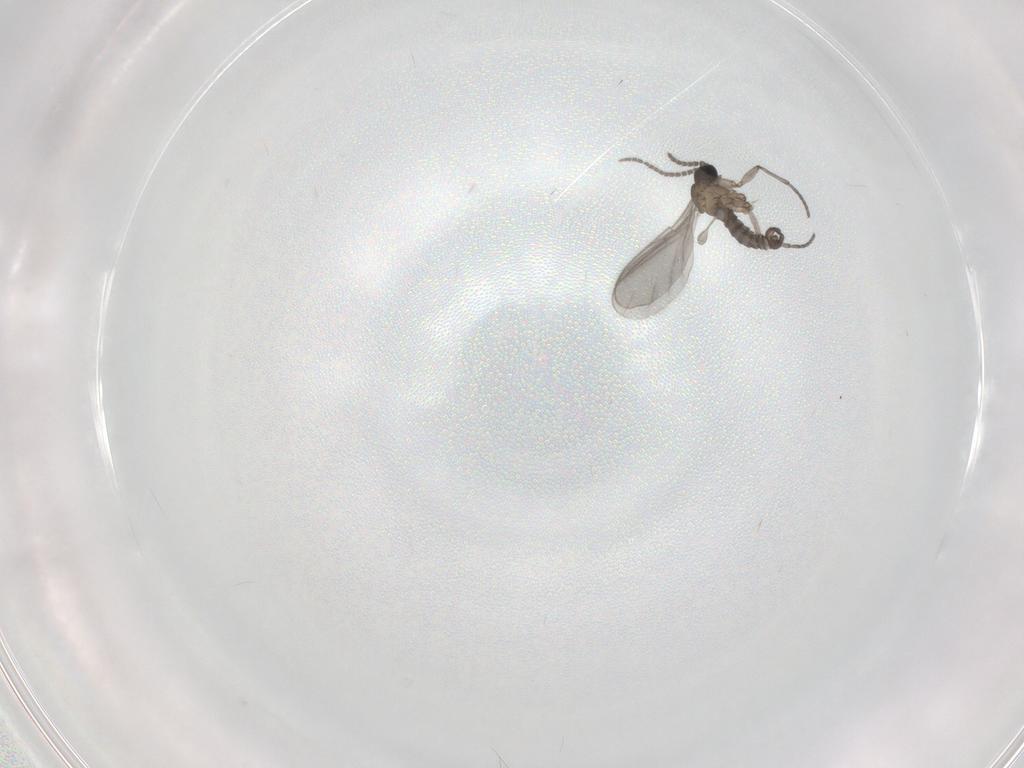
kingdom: Animalia
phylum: Arthropoda
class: Insecta
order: Diptera
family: Sciaridae
